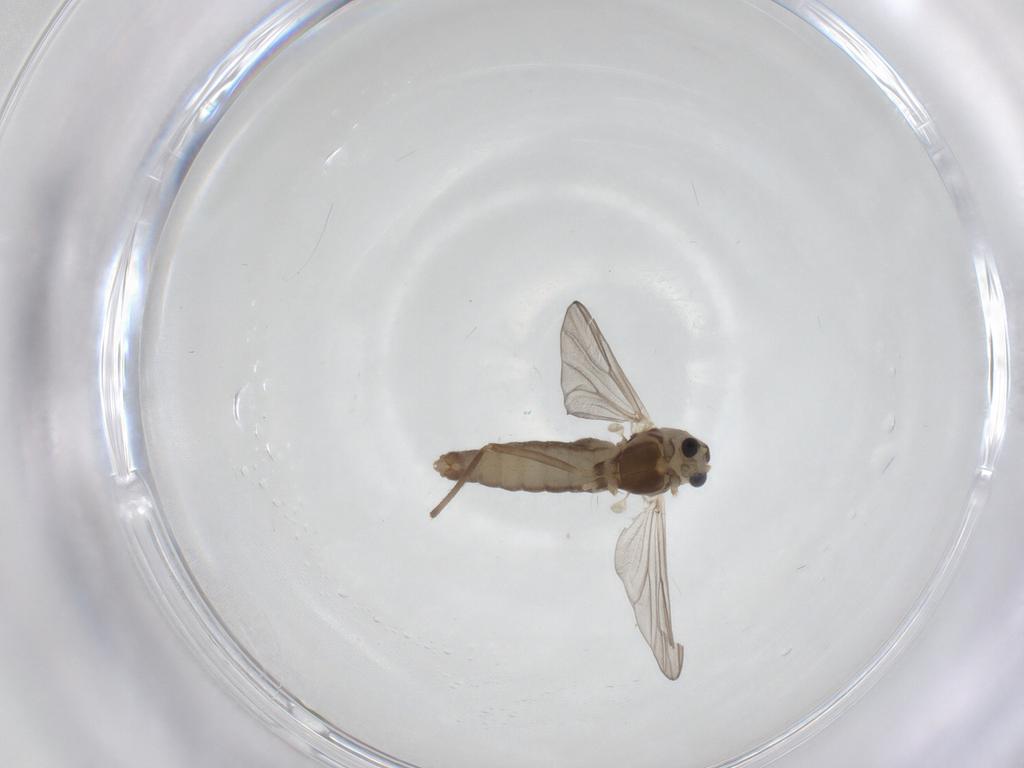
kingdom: Animalia
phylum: Arthropoda
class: Insecta
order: Diptera
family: Chironomidae
